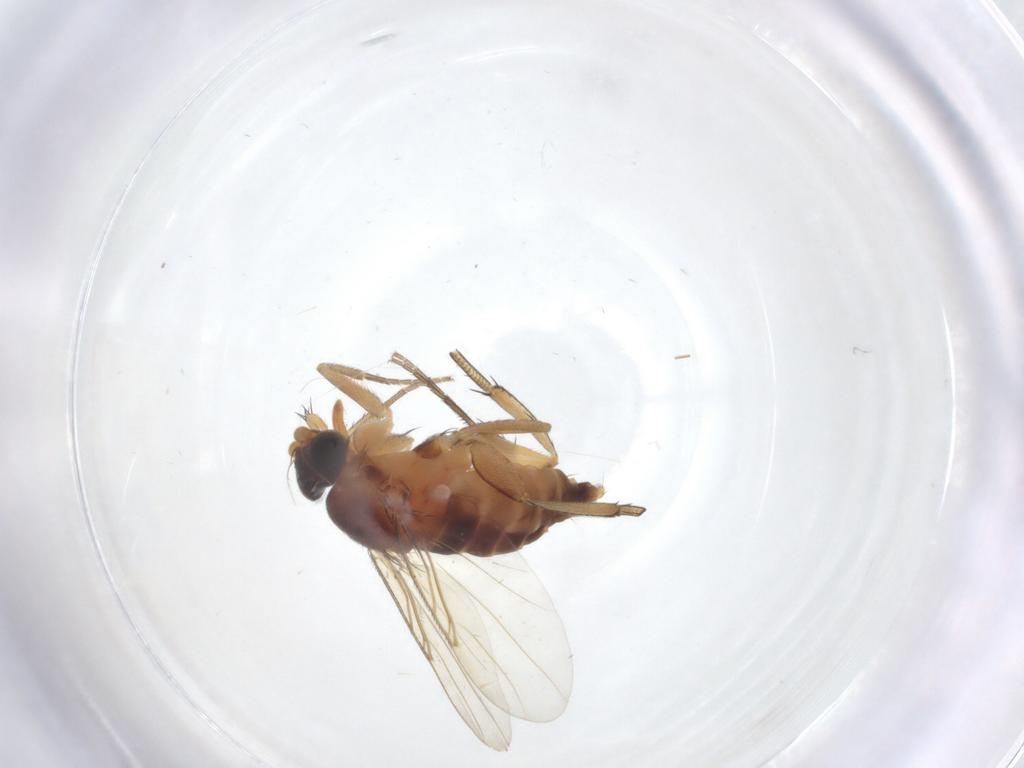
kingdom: Animalia
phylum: Arthropoda
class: Insecta
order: Diptera
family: Phoridae
